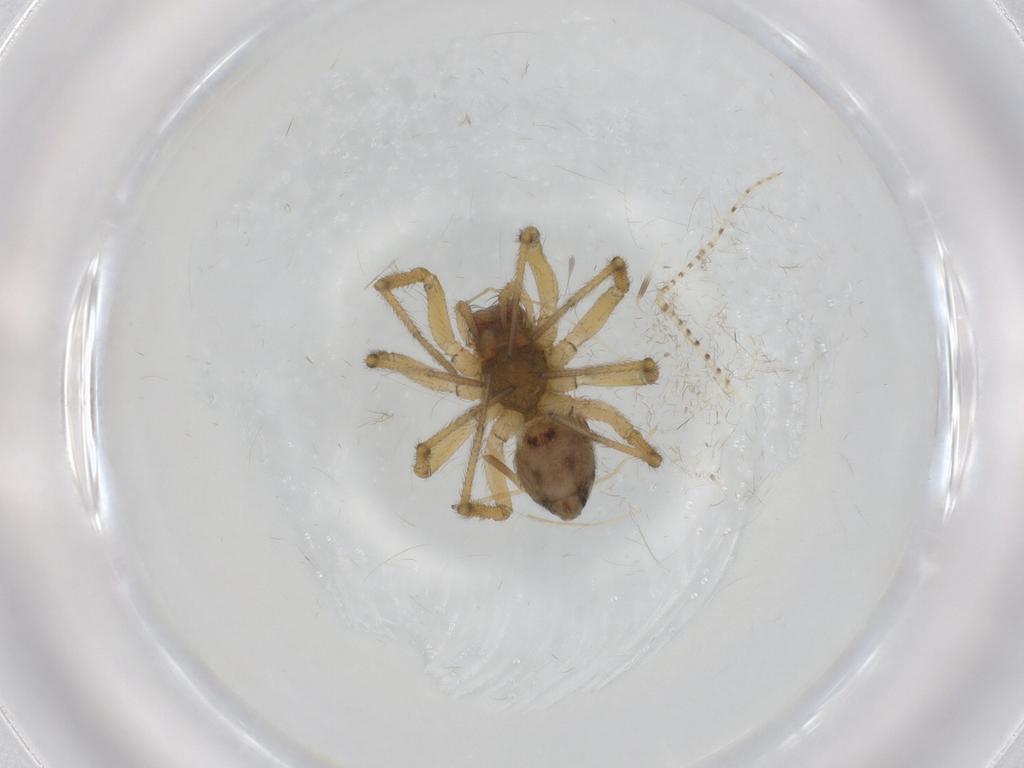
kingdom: Animalia
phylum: Arthropoda
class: Arachnida
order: Araneae
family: Linyphiidae
